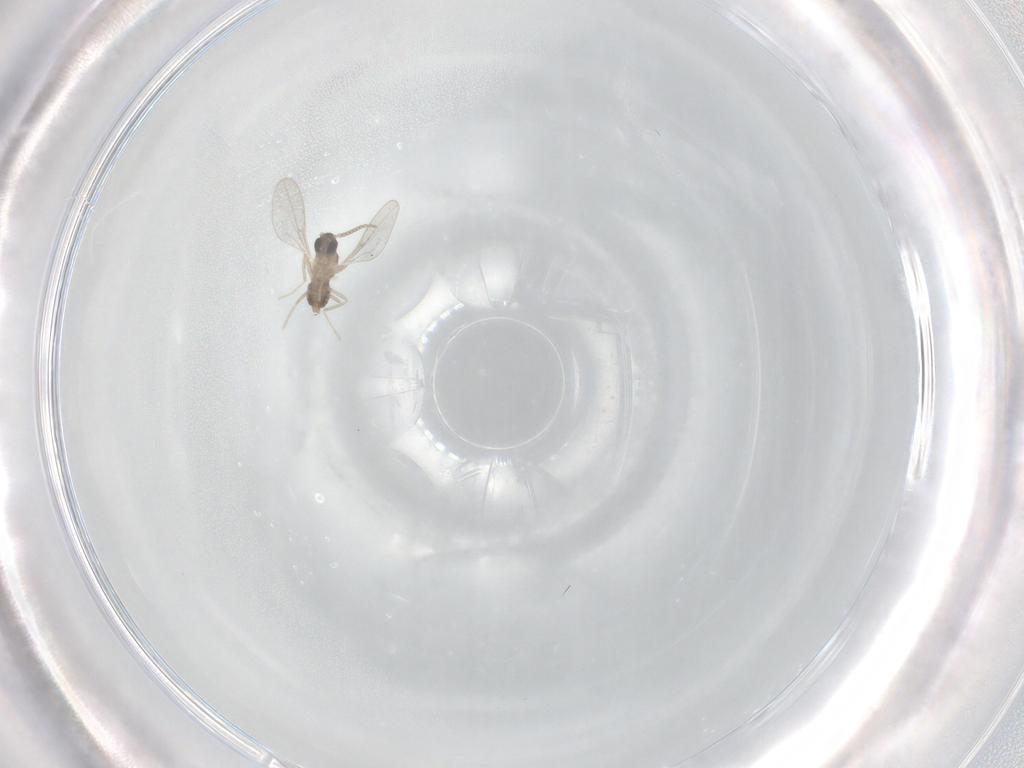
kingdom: Animalia
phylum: Arthropoda
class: Insecta
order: Diptera
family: Cecidomyiidae
